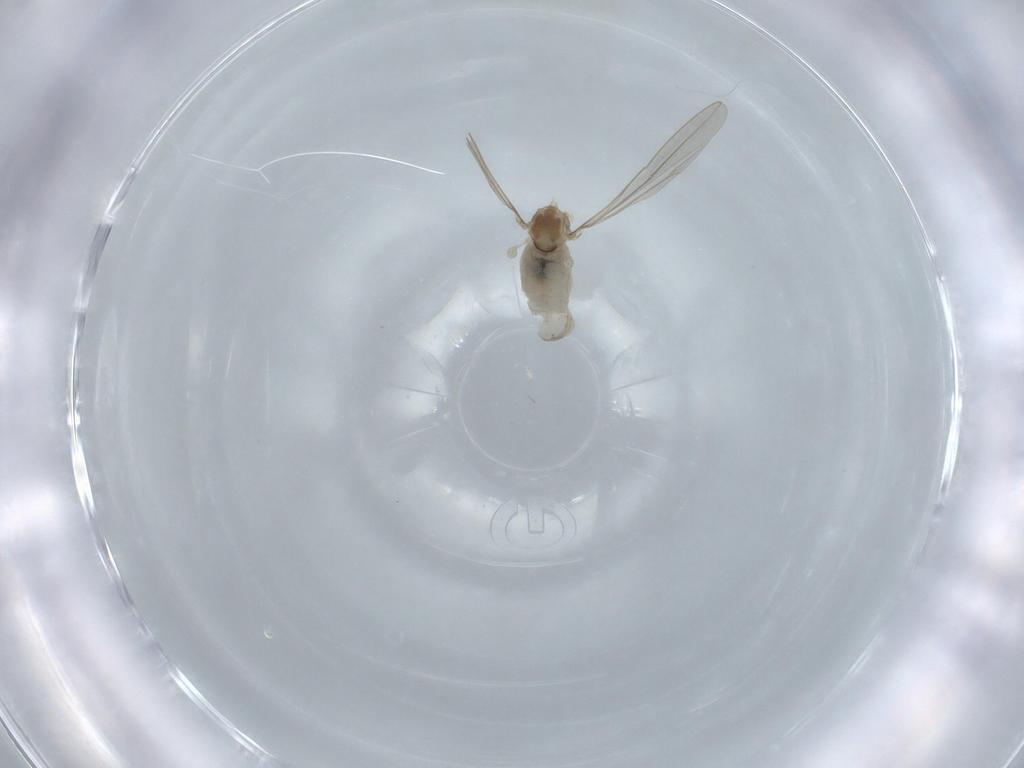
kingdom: Animalia
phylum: Arthropoda
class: Insecta
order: Diptera
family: Cecidomyiidae
